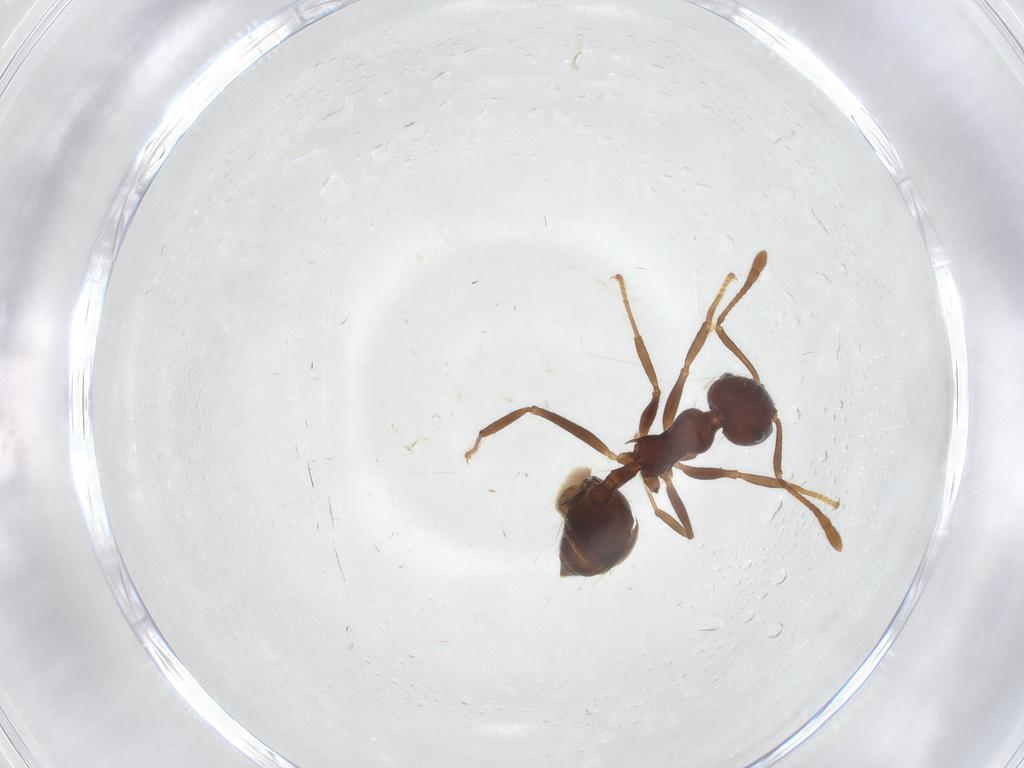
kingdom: Animalia
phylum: Arthropoda
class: Insecta
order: Hymenoptera
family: Formicidae
